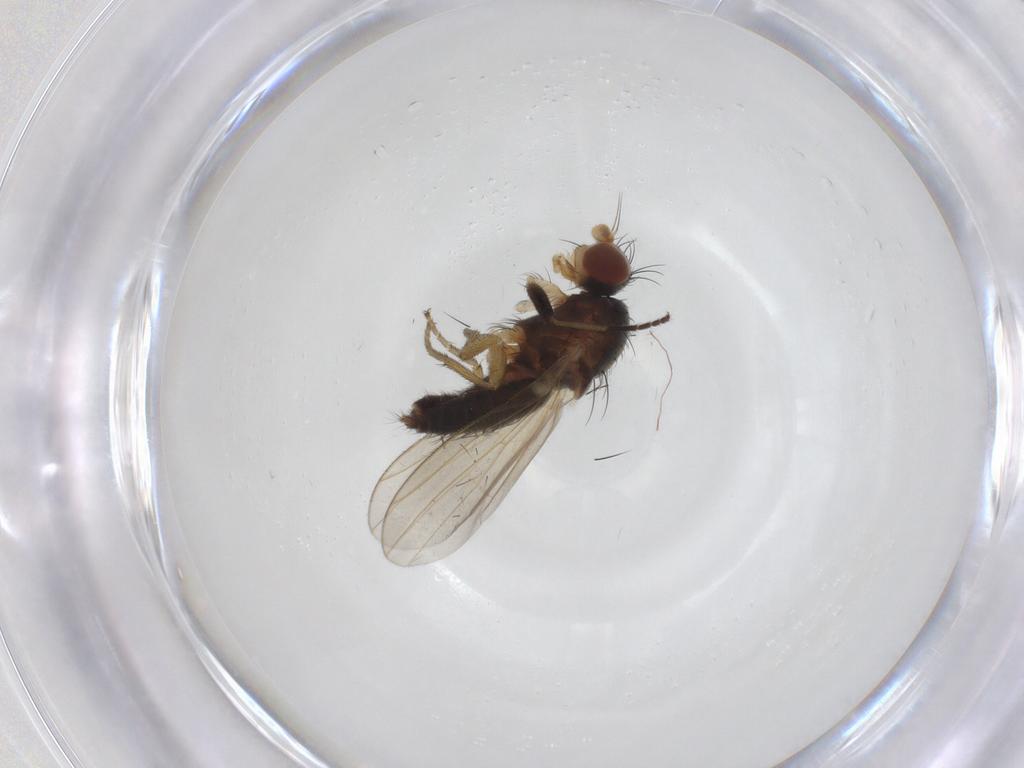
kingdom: Animalia
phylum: Arthropoda
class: Insecta
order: Diptera
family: Heleomyzidae
